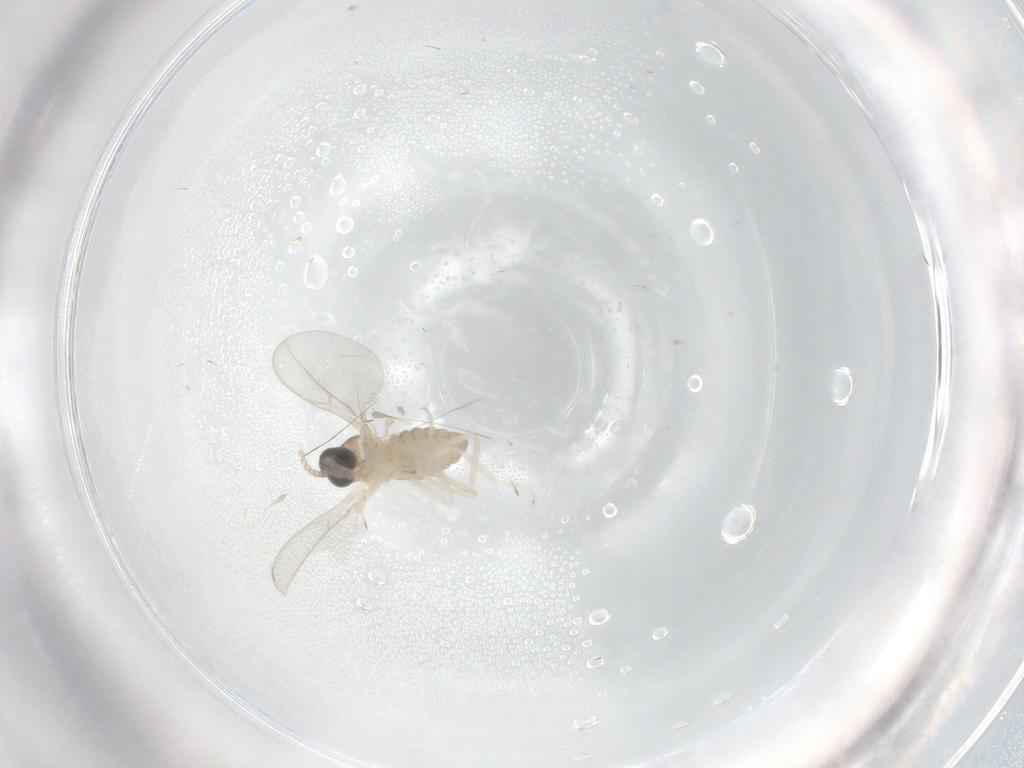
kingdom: Animalia
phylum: Arthropoda
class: Insecta
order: Diptera
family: Cecidomyiidae
